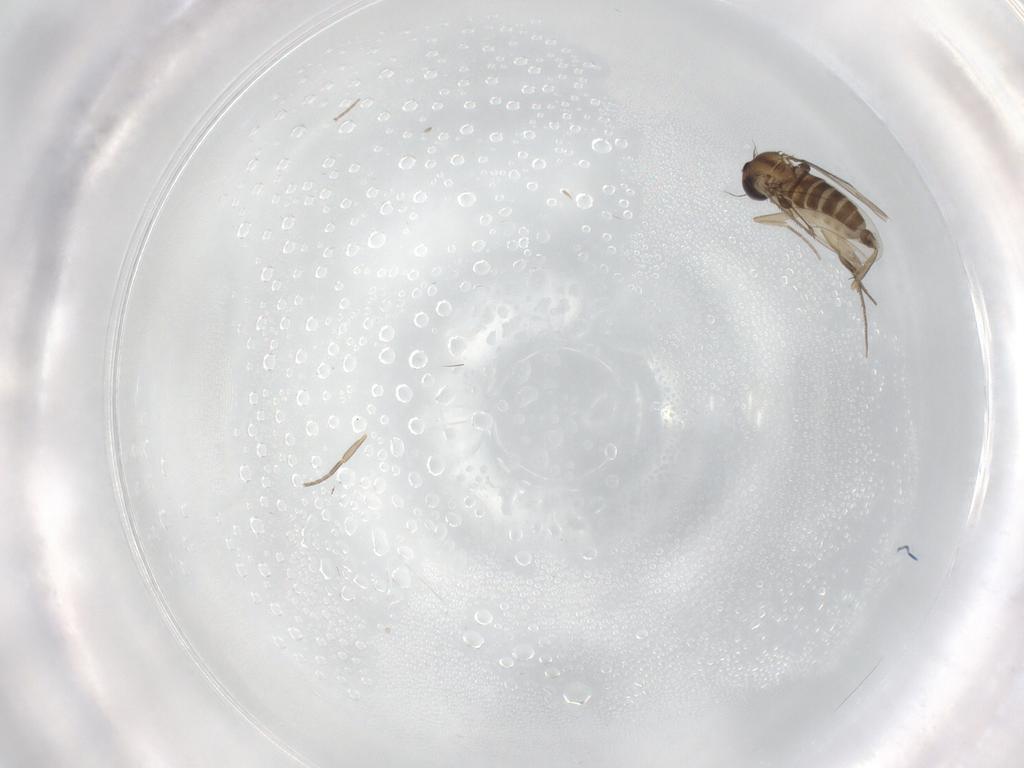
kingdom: Animalia
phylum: Arthropoda
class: Insecta
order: Diptera
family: Phoridae
